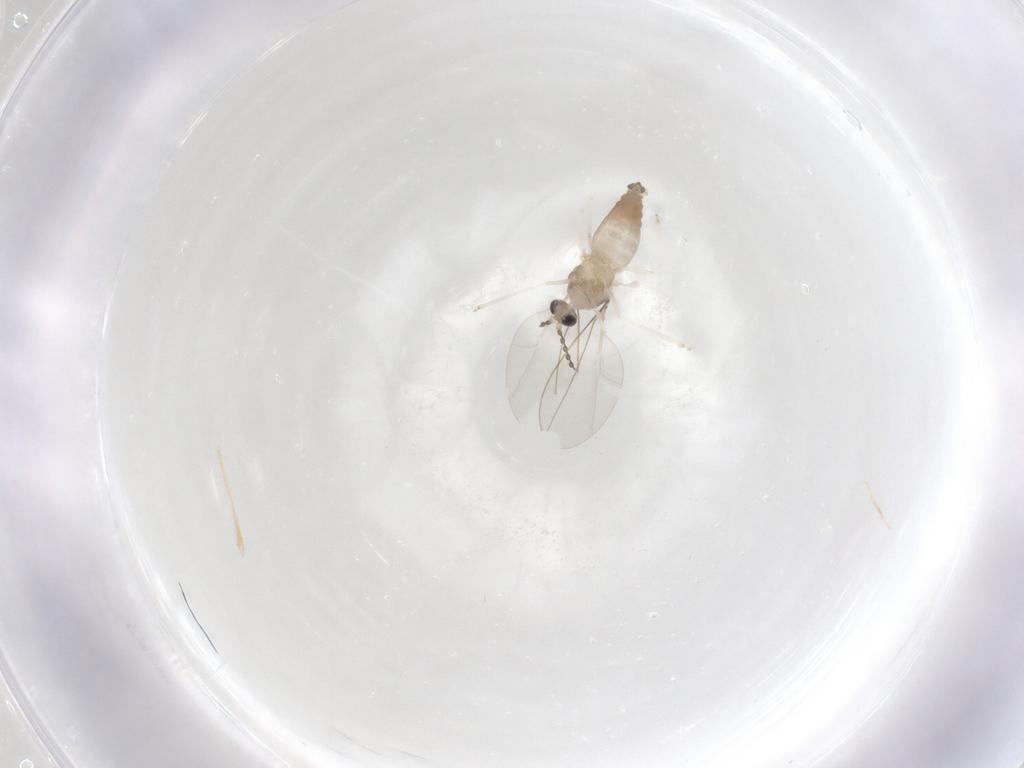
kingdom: Animalia
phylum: Arthropoda
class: Insecta
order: Diptera
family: Cecidomyiidae
